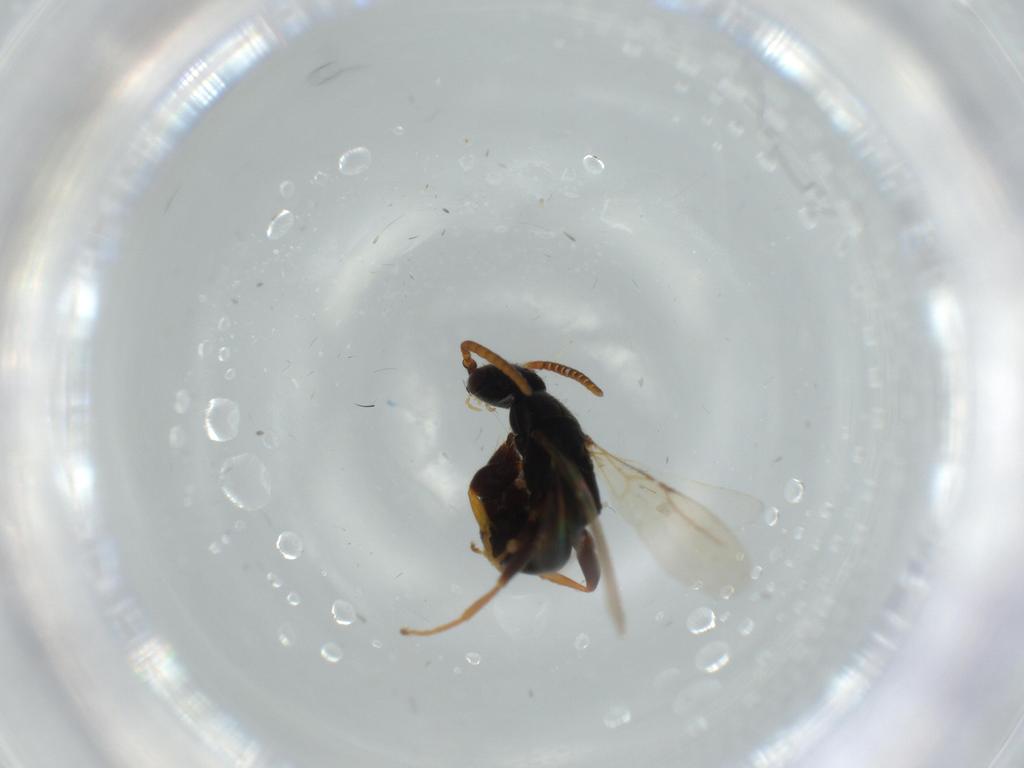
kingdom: Animalia
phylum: Arthropoda
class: Insecta
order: Hymenoptera
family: Bethylidae
